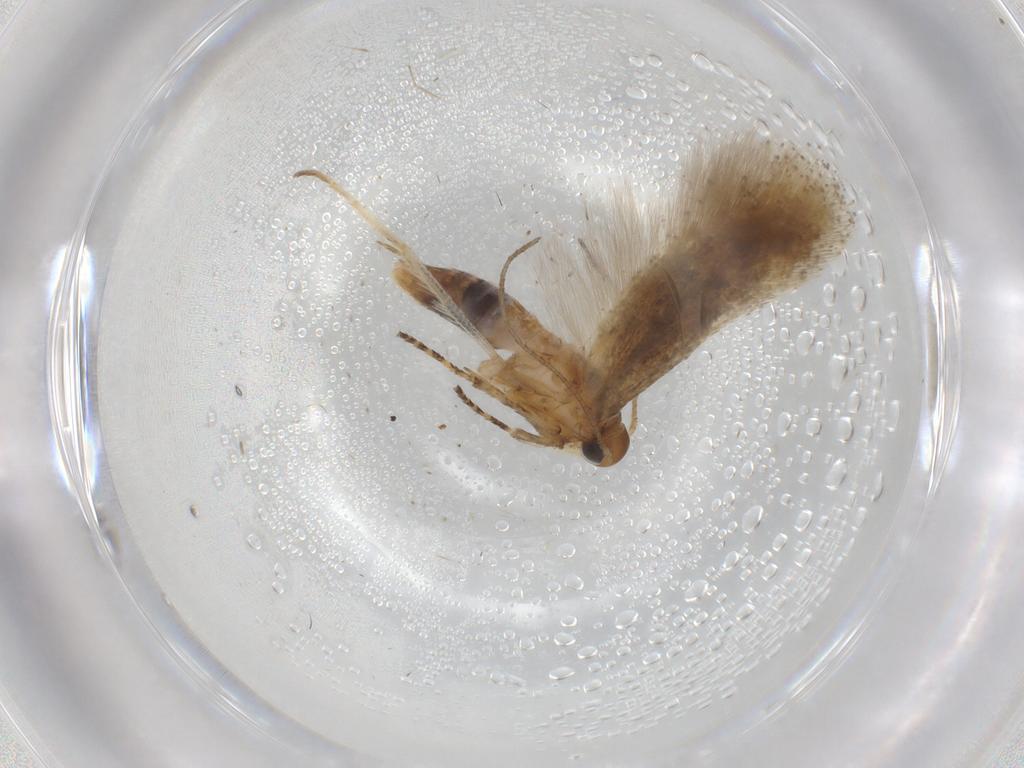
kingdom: Animalia
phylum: Arthropoda
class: Insecta
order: Lepidoptera
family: Gelechiidae
